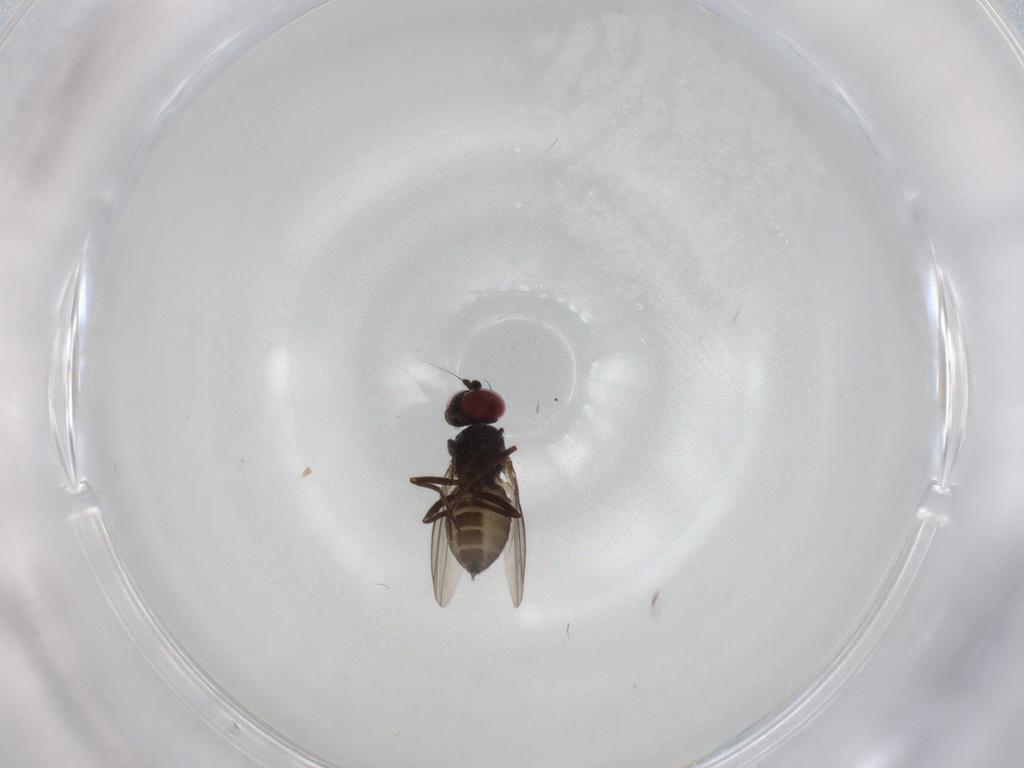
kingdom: Animalia
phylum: Arthropoda
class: Insecta
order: Diptera
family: Dolichopodidae
